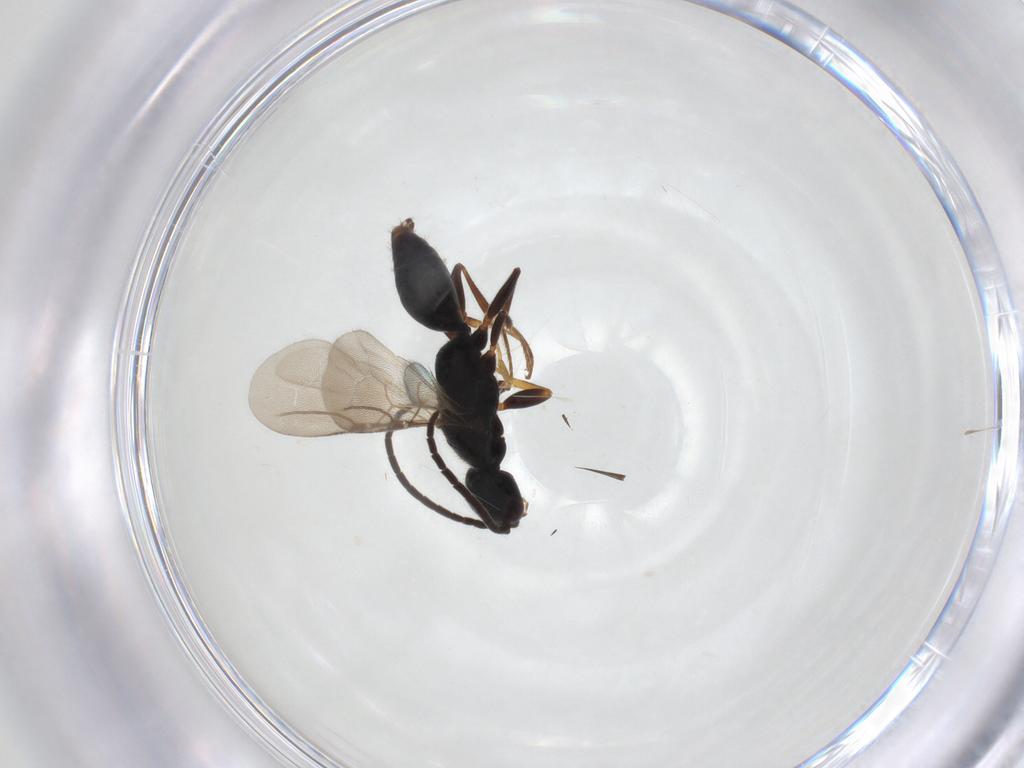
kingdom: Animalia
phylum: Arthropoda
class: Insecta
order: Hymenoptera
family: Bethylidae
